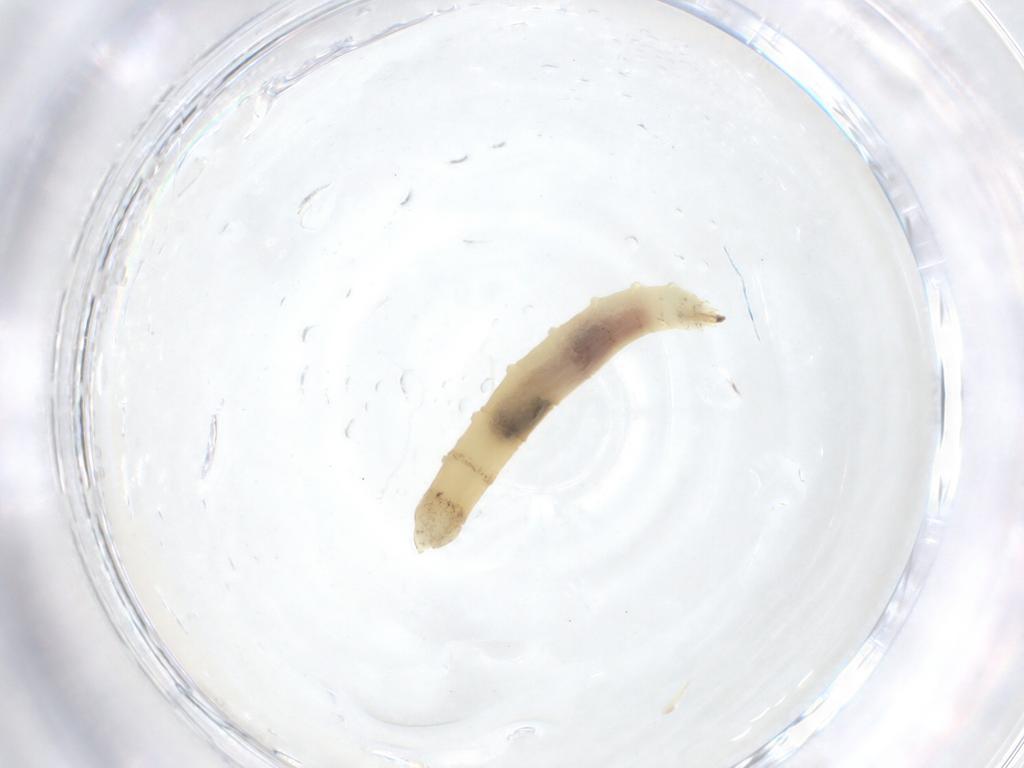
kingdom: Animalia
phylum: Arthropoda
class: Insecta
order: Diptera
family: Hybotidae
